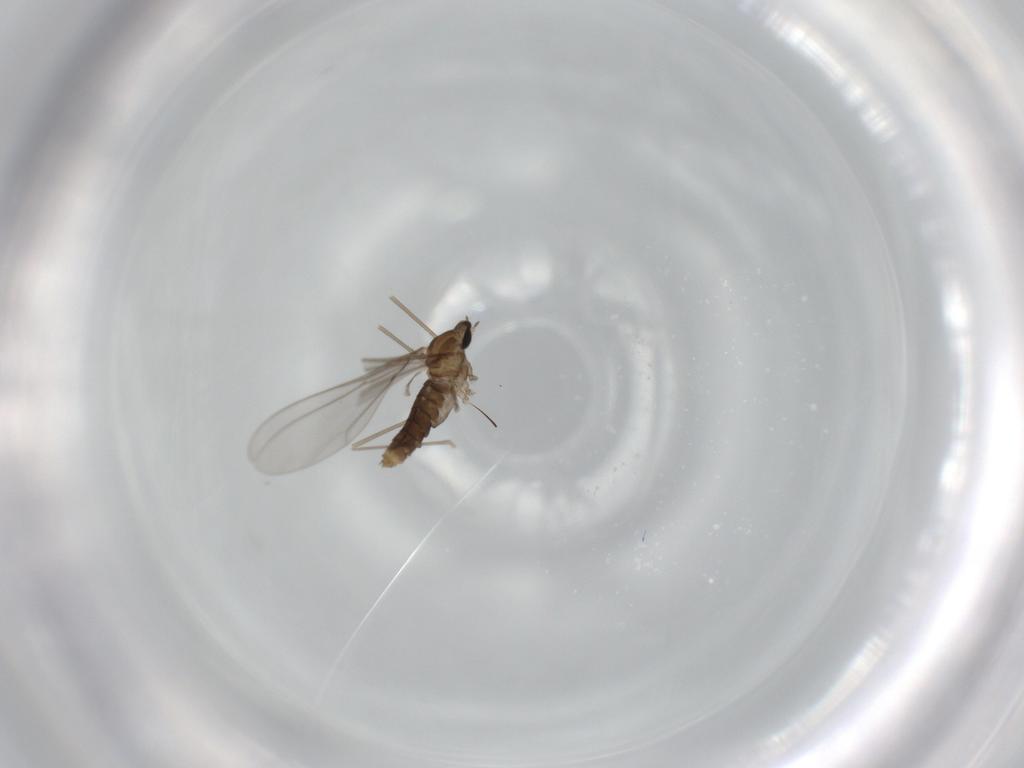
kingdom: Animalia
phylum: Arthropoda
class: Insecta
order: Diptera
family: Cecidomyiidae
